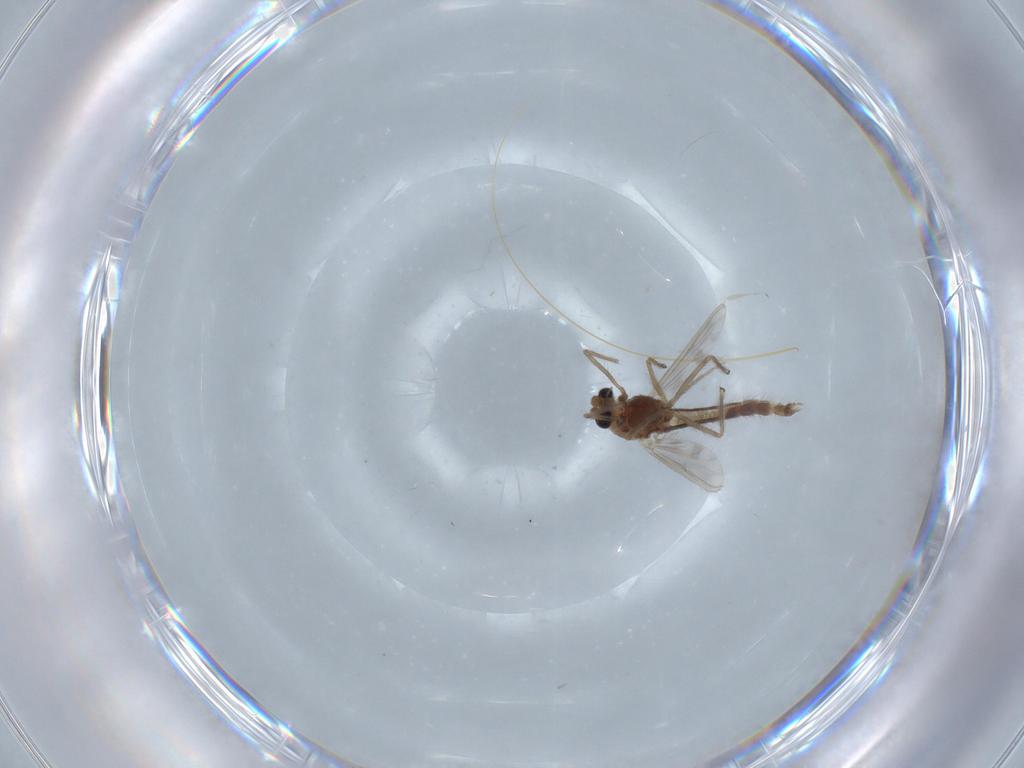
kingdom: Animalia
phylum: Arthropoda
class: Insecta
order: Diptera
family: Chironomidae
